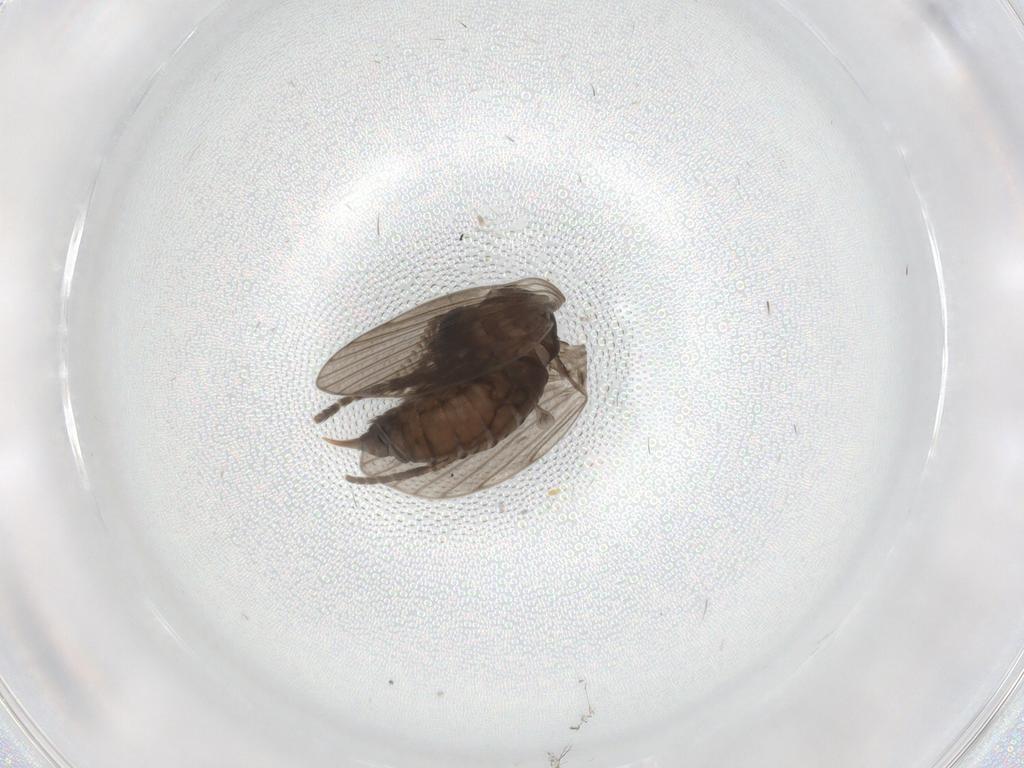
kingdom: Animalia
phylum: Arthropoda
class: Insecta
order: Diptera
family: Psychodidae
